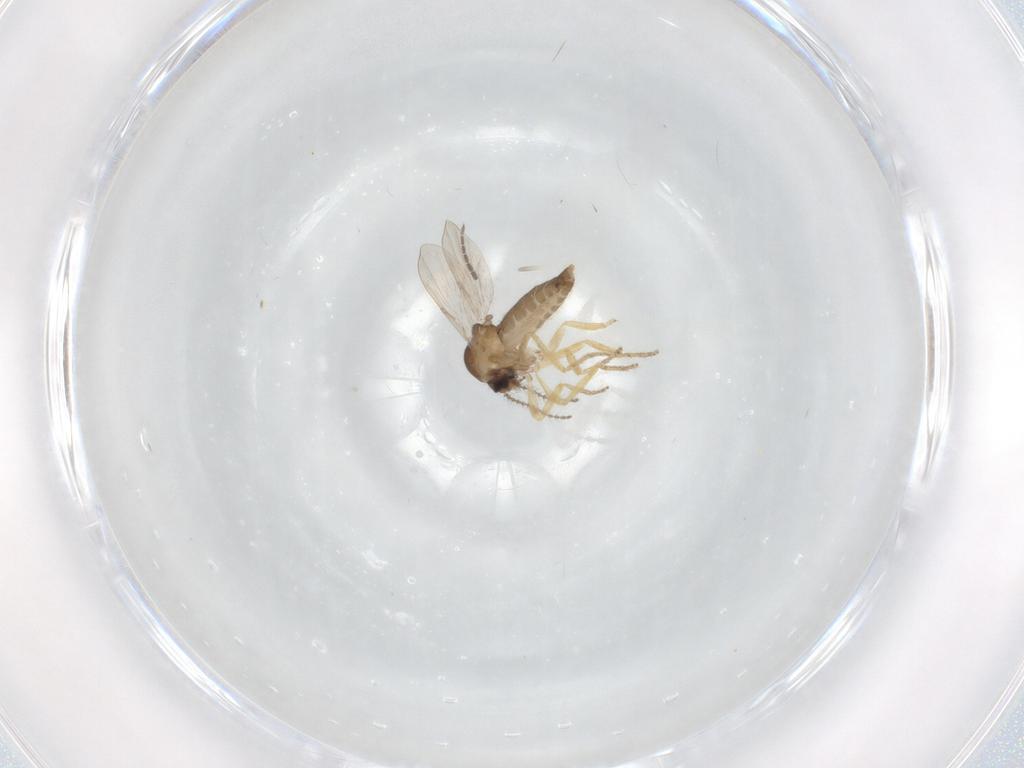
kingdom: Animalia
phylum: Arthropoda
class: Insecta
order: Diptera
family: Ceratopogonidae
